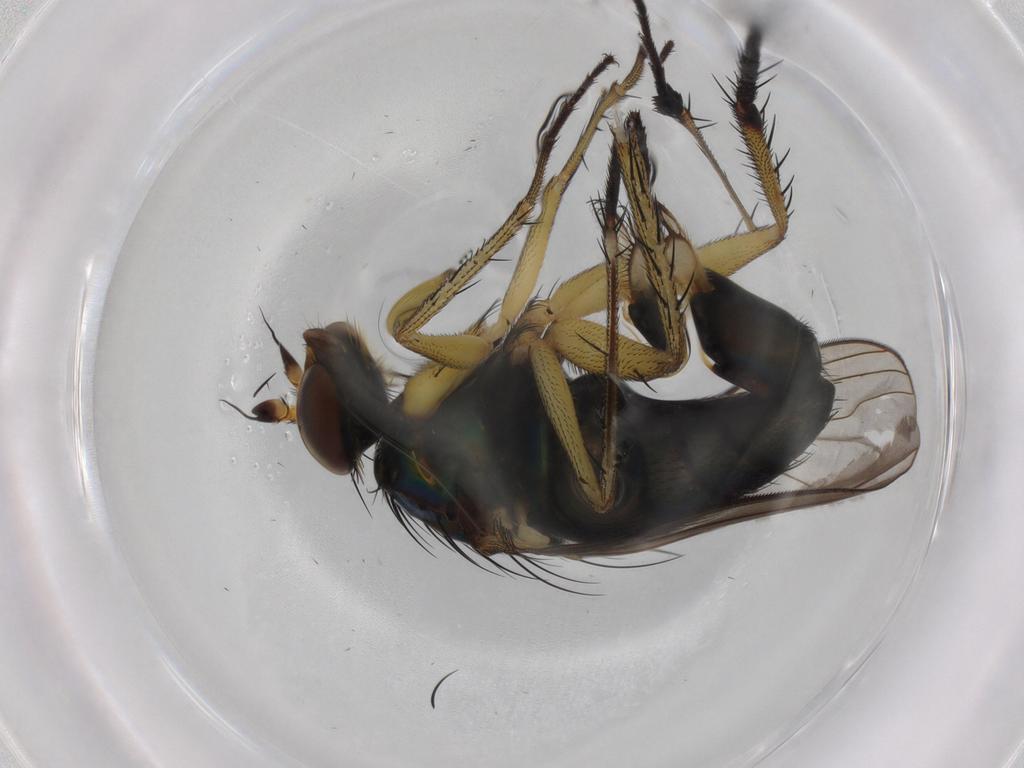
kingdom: Animalia
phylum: Arthropoda
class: Insecta
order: Diptera
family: Dolichopodidae
